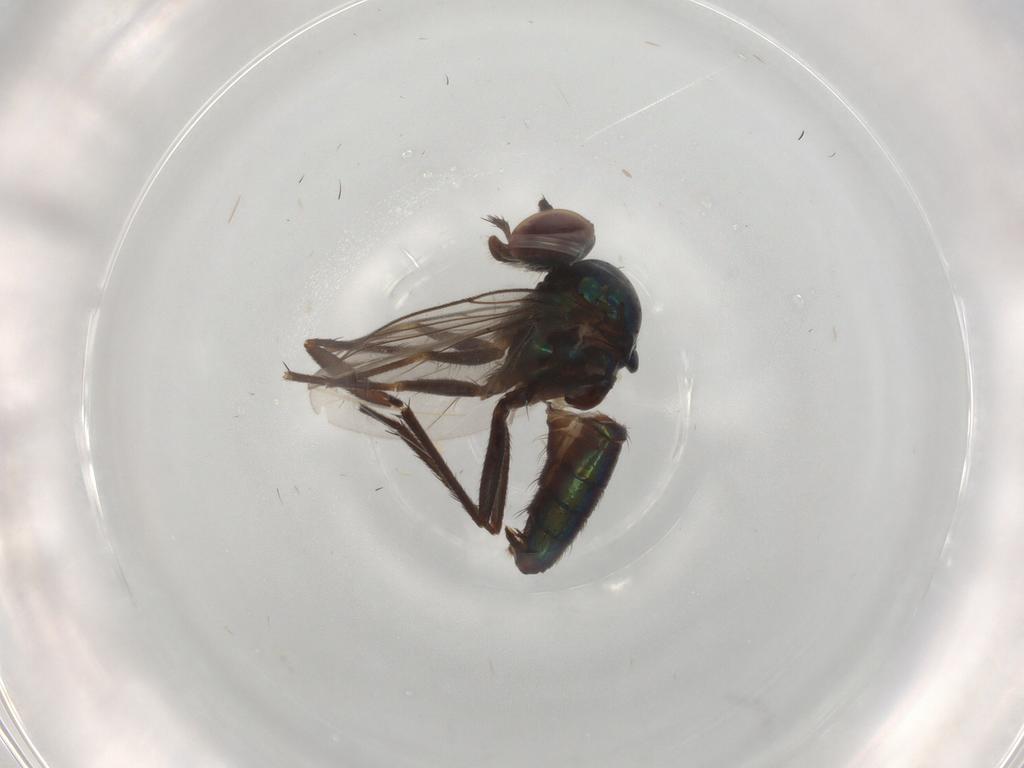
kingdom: Animalia
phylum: Arthropoda
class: Insecta
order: Diptera
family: Dolichopodidae
